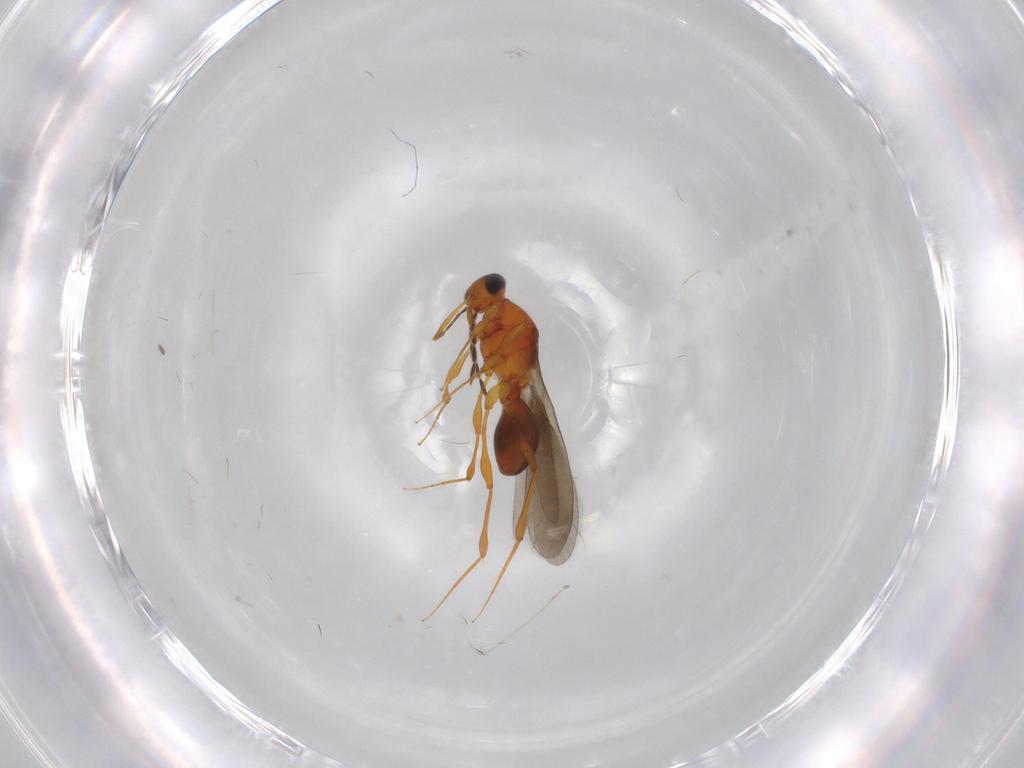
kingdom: Animalia
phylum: Arthropoda
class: Insecta
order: Hymenoptera
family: Platygastridae
